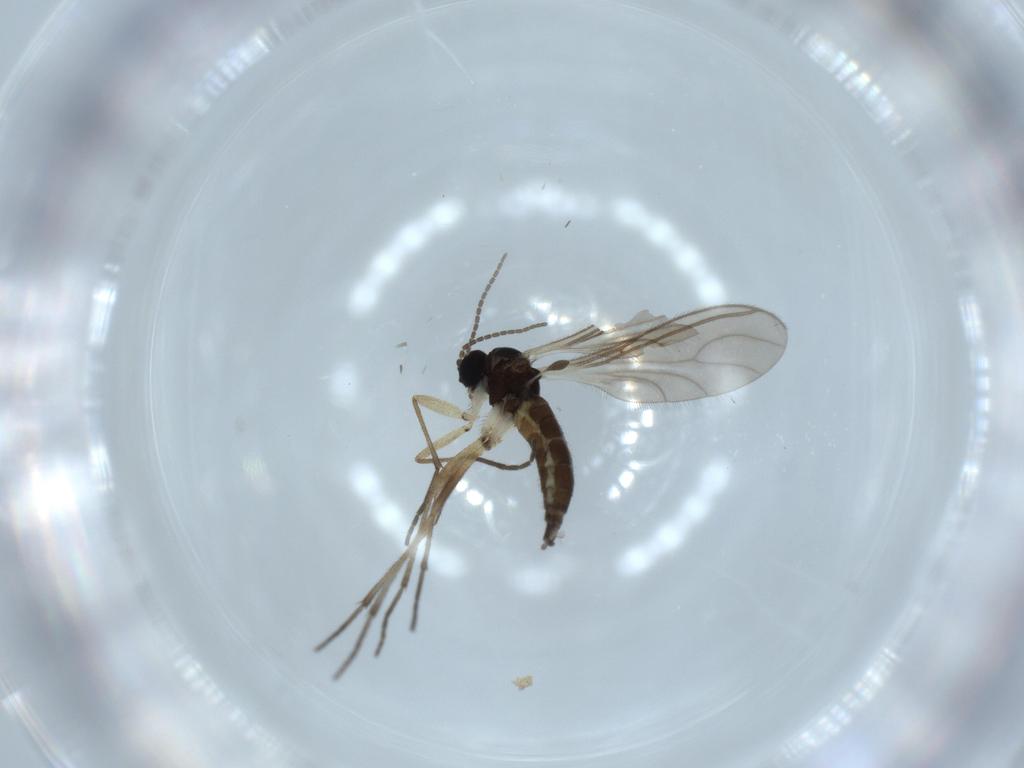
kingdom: Animalia
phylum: Arthropoda
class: Insecta
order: Diptera
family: Sciaridae
